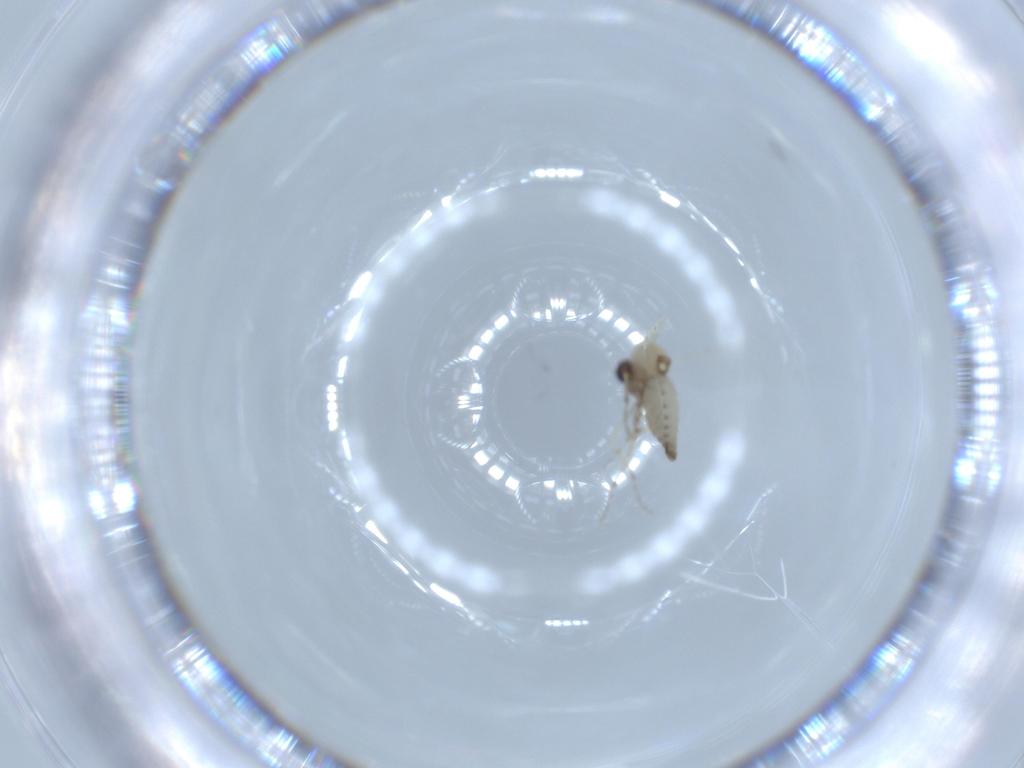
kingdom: Animalia
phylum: Arthropoda
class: Insecta
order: Diptera
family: Ceratopogonidae
